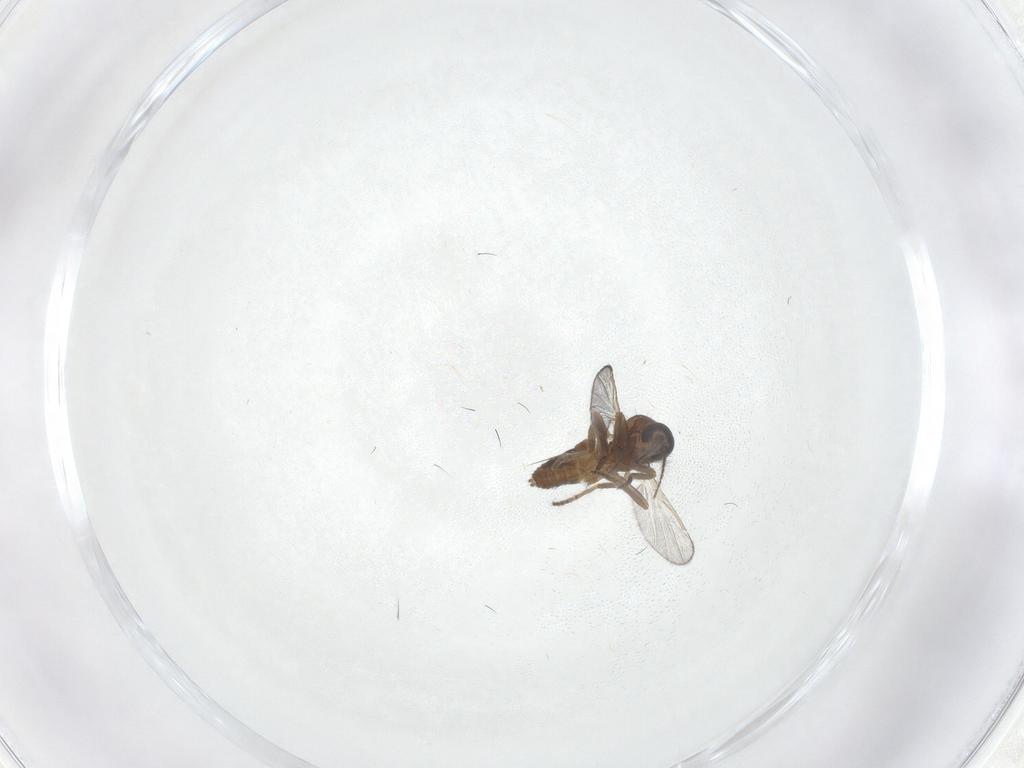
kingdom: Animalia
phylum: Arthropoda
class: Insecta
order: Diptera
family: Ceratopogonidae
